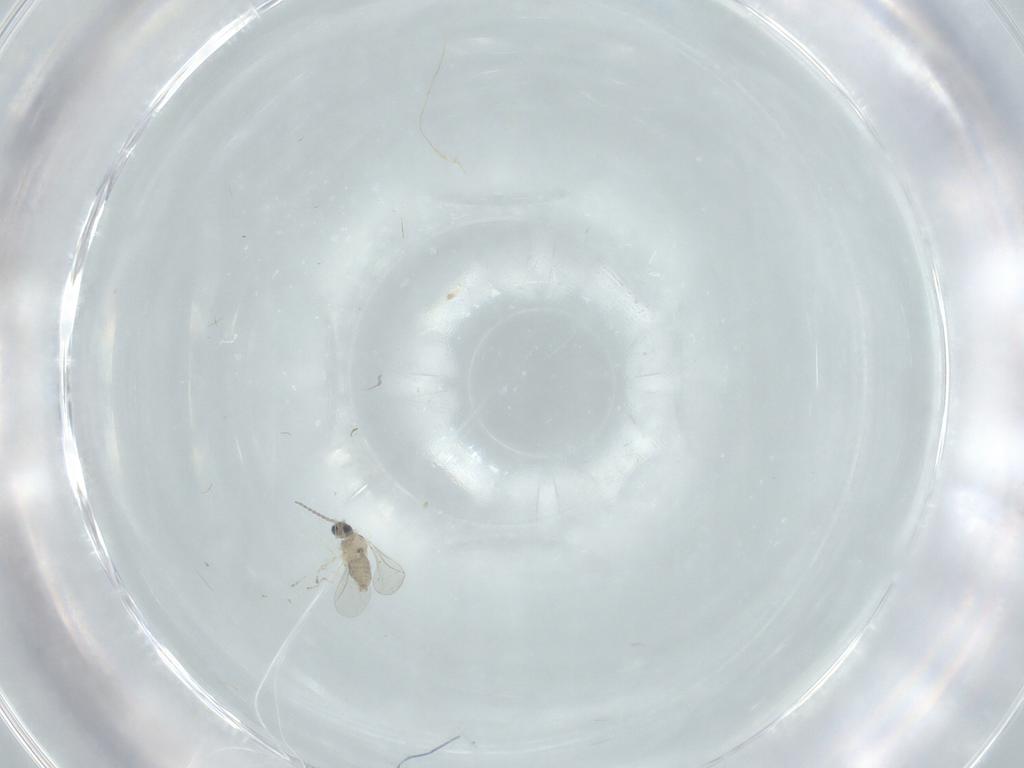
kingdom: Animalia
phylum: Arthropoda
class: Insecta
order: Diptera
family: Cecidomyiidae
